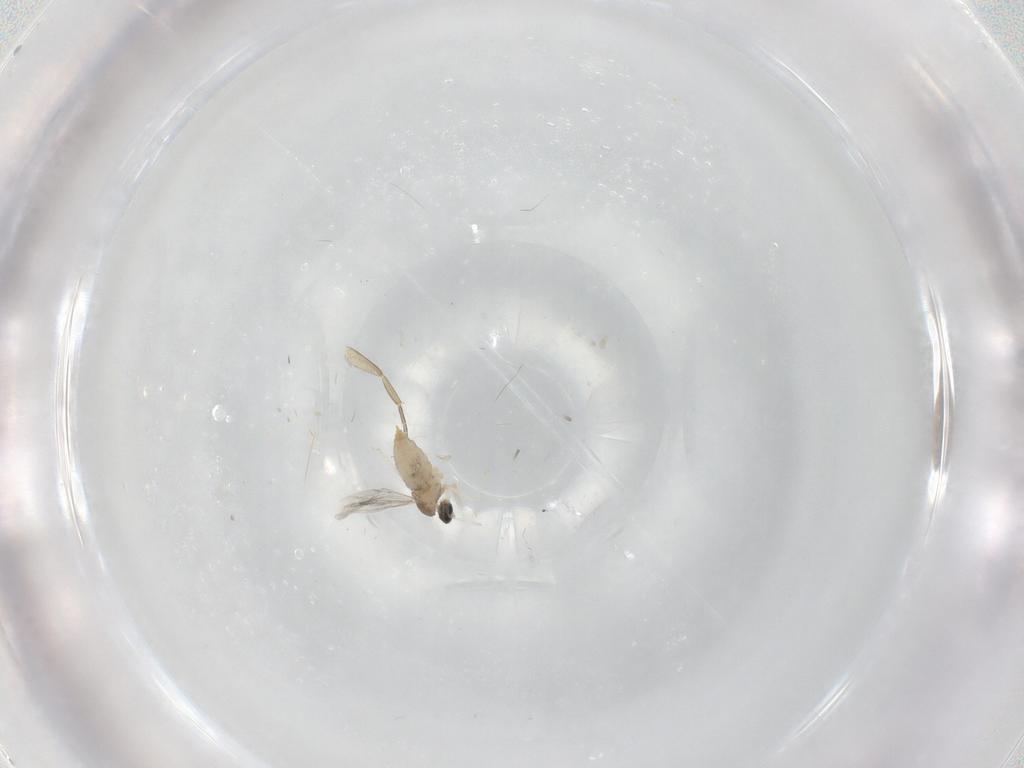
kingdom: Animalia
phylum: Arthropoda
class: Insecta
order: Diptera
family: Cecidomyiidae
